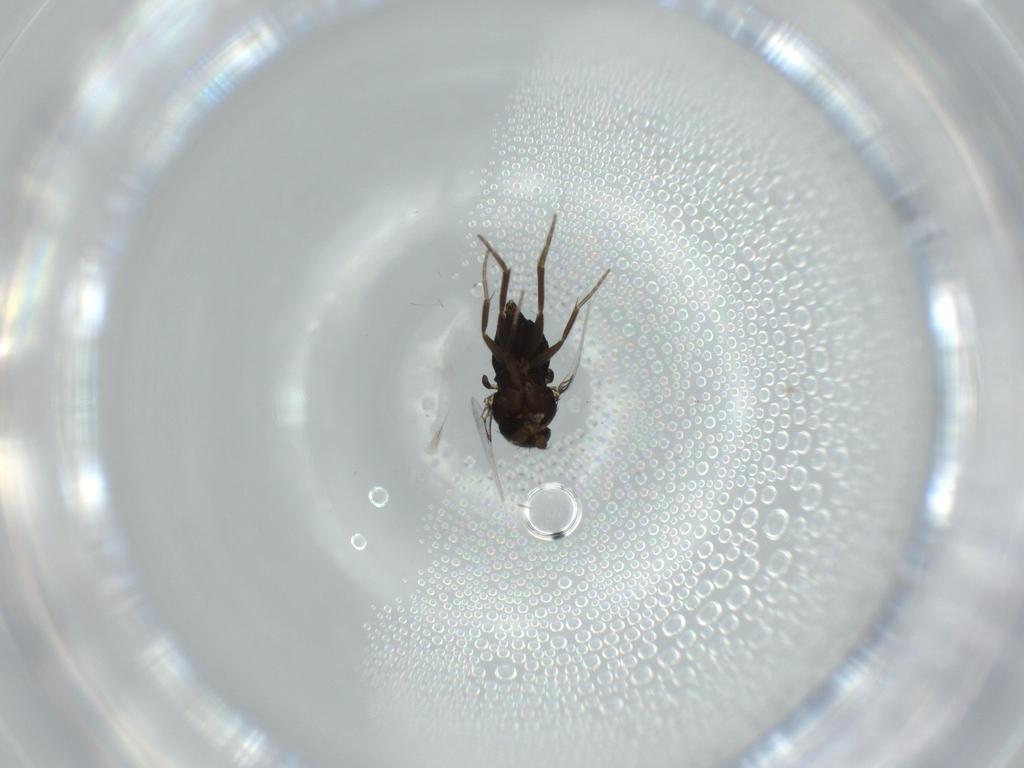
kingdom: Animalia
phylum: Arthropoda
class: Insecta
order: Diptera
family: Phoridae
